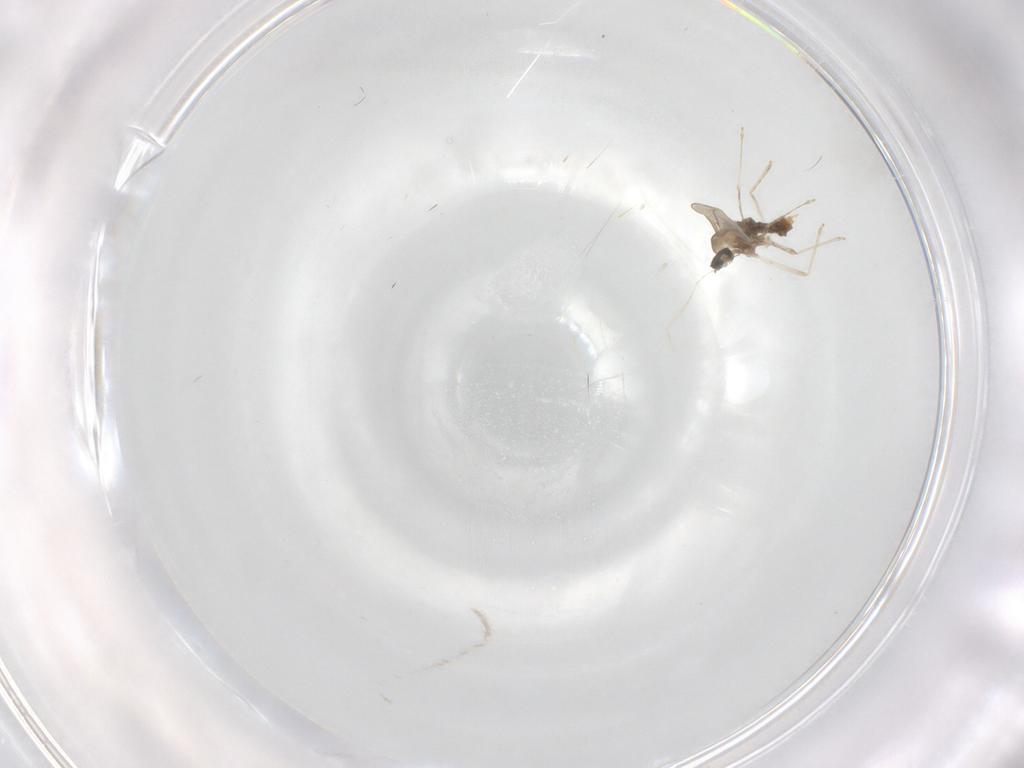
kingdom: Animalia
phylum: Arthropoda
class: Insecta
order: Diptera
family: Cecidomyiidae
